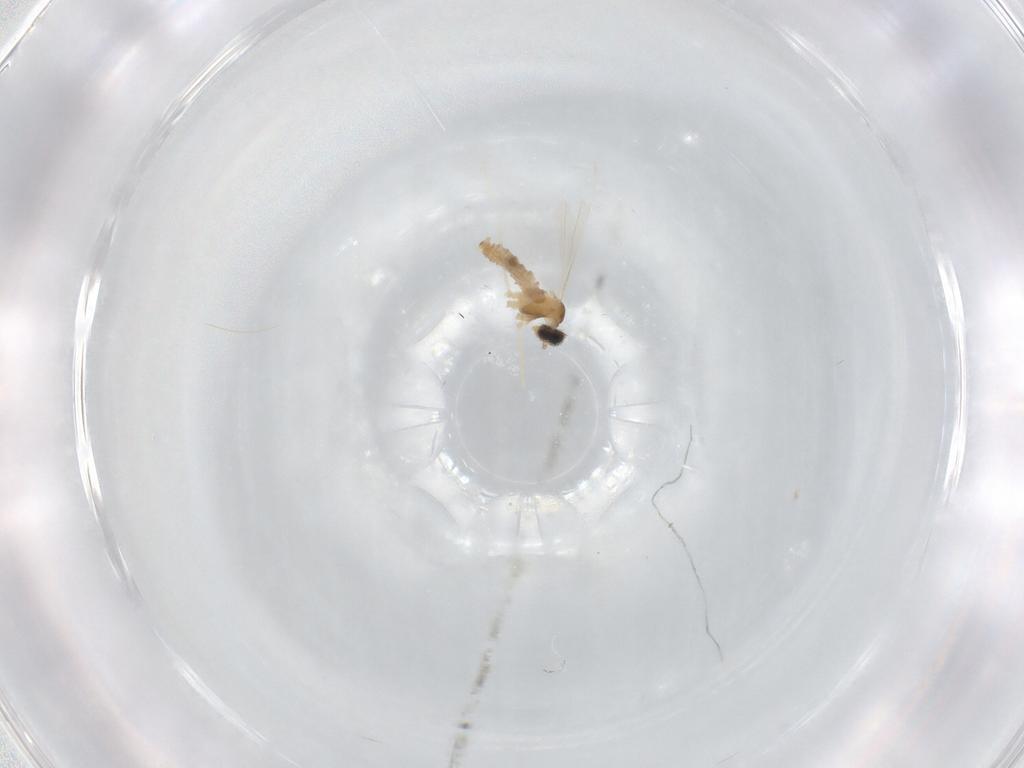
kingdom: Animalia
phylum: Arthropoda
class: Insecta
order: Diptera
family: Cecidomyiidae
